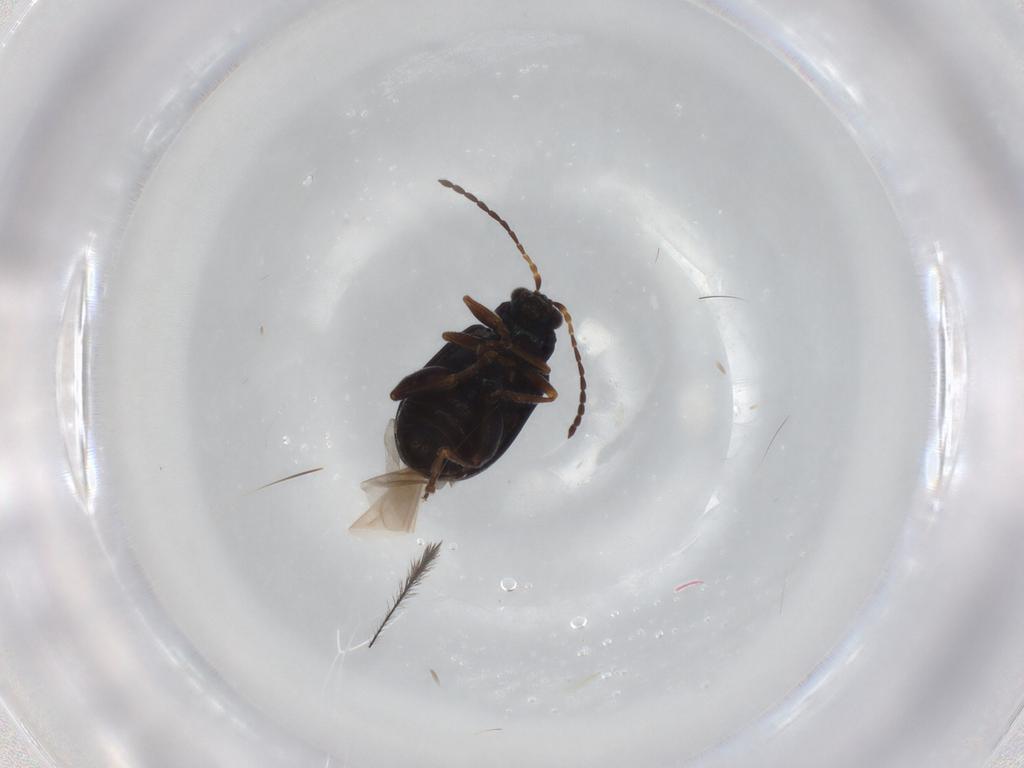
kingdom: Animalia
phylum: Arthropoda
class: Insecta
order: Coleoptera
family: Chrysomelidae
